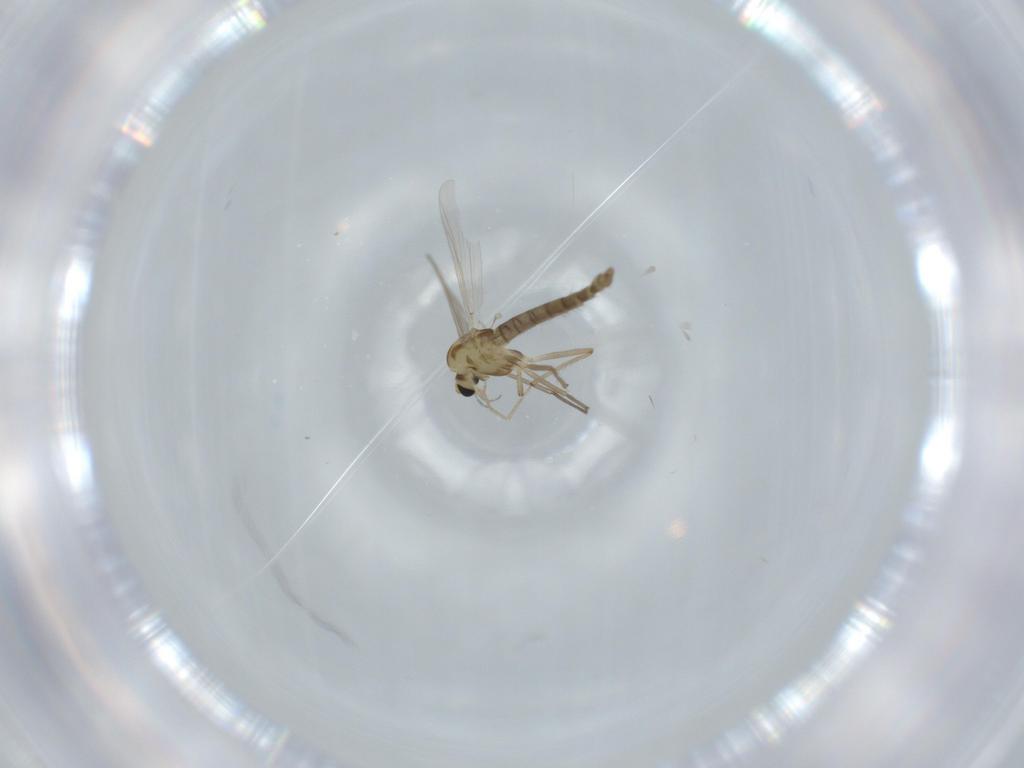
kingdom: Animalia
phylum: Arthropoda
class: Insecta
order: Diptera
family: Chironomidae
